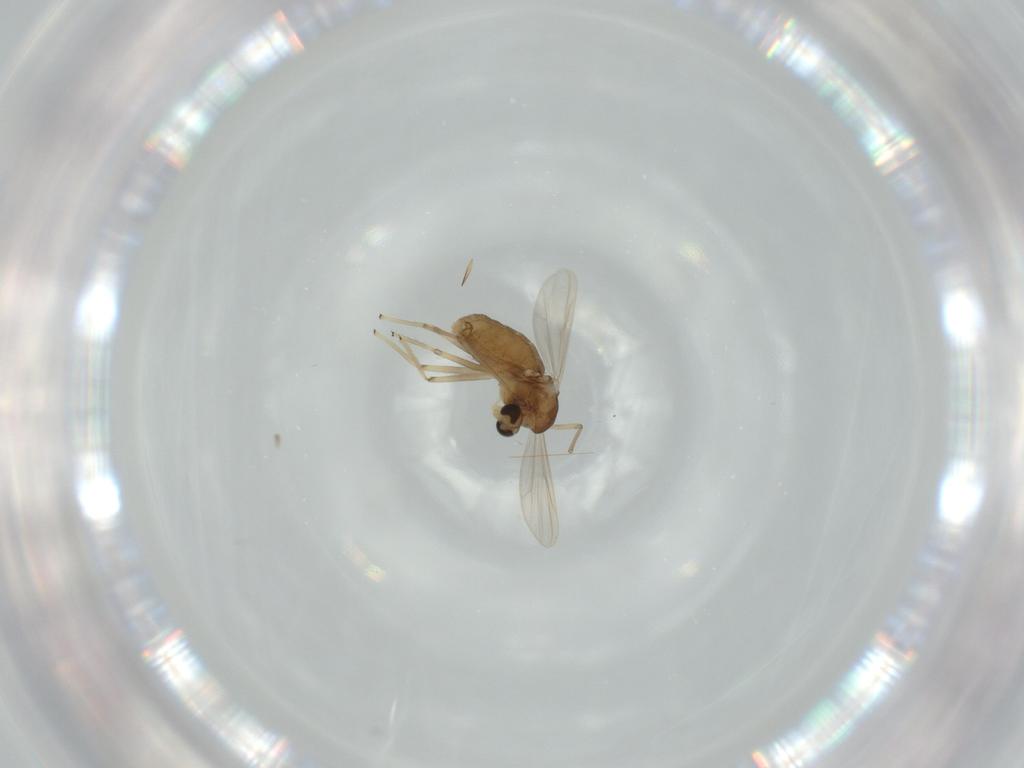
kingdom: Animalia
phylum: Arthropoda
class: Insecta
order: Diptera
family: Chironomidae
